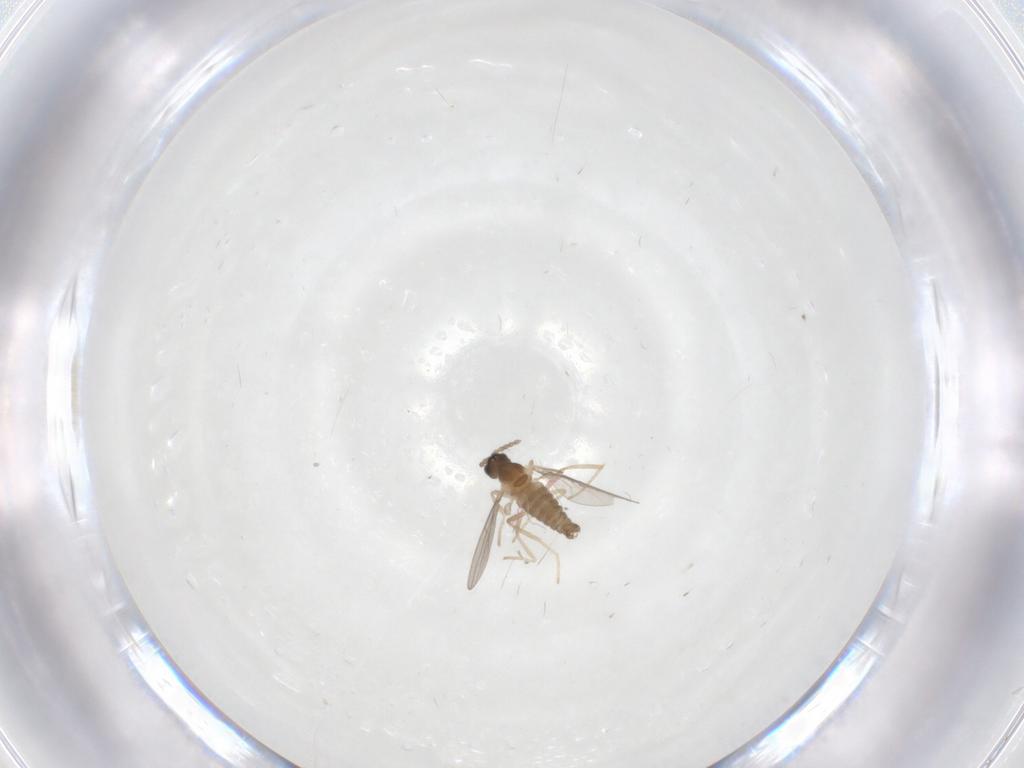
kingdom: Animalia
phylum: Arthropoda
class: Insecta
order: Diptera
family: Cecidomyiidae
